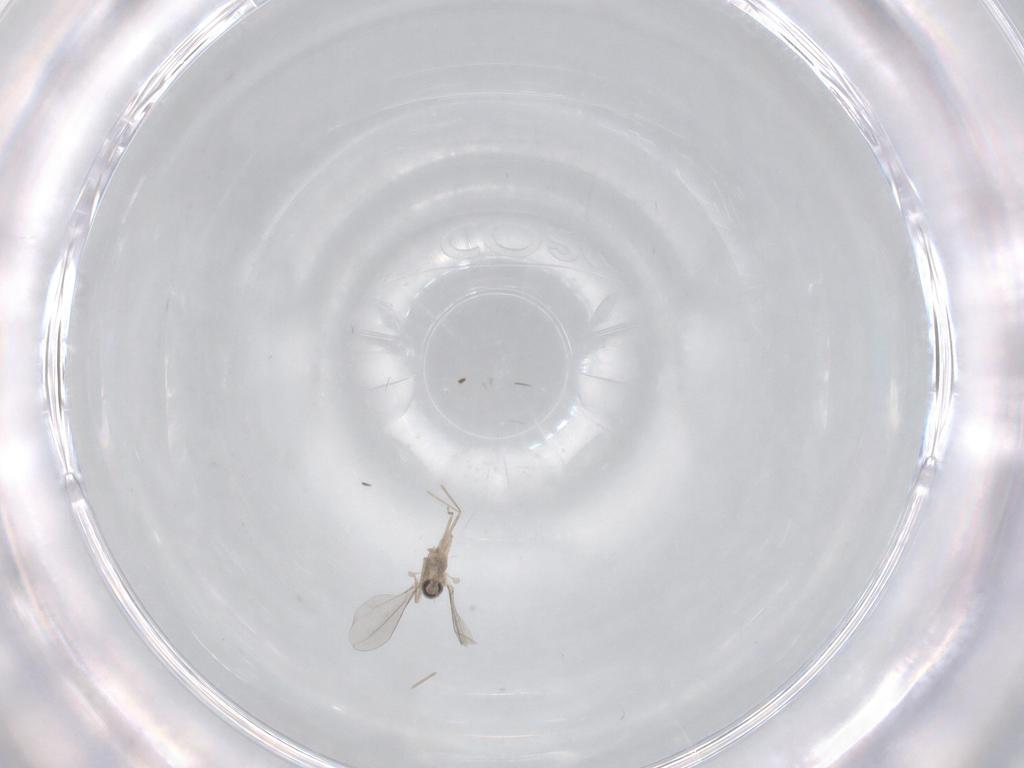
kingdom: Animalia
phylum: Arthropoda
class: Insecta
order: Diptera
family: Cecidomyiidae
